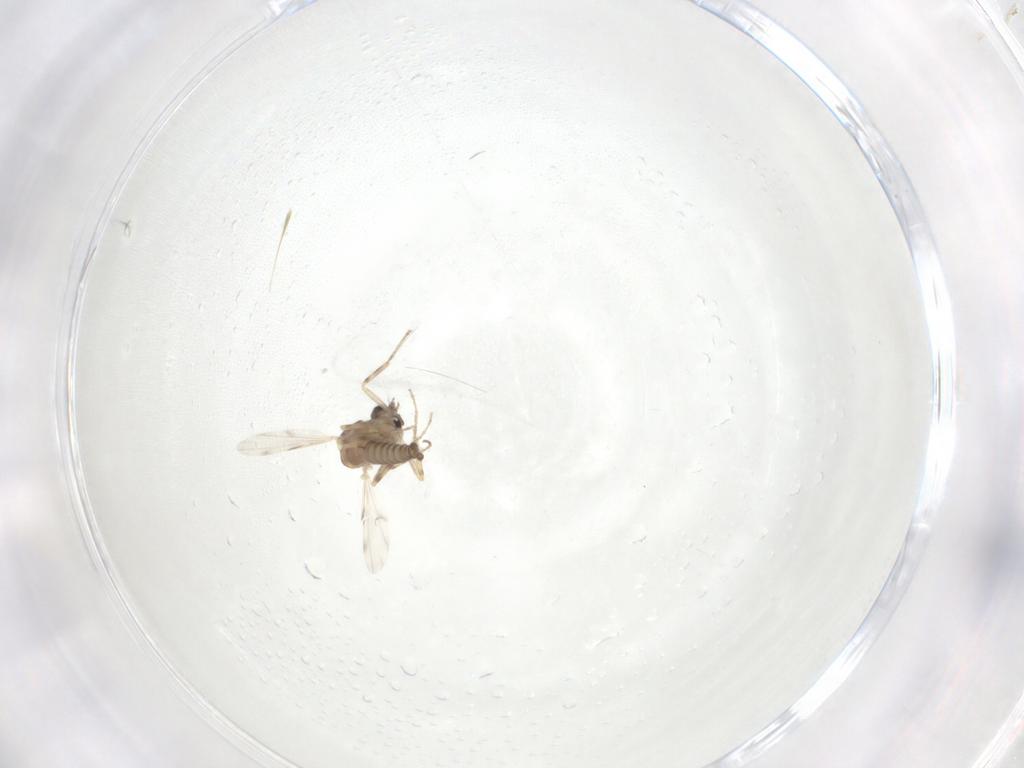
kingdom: Animalia
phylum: Arthropoda
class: Insecta
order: Diptera
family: Ceratopogonidae
